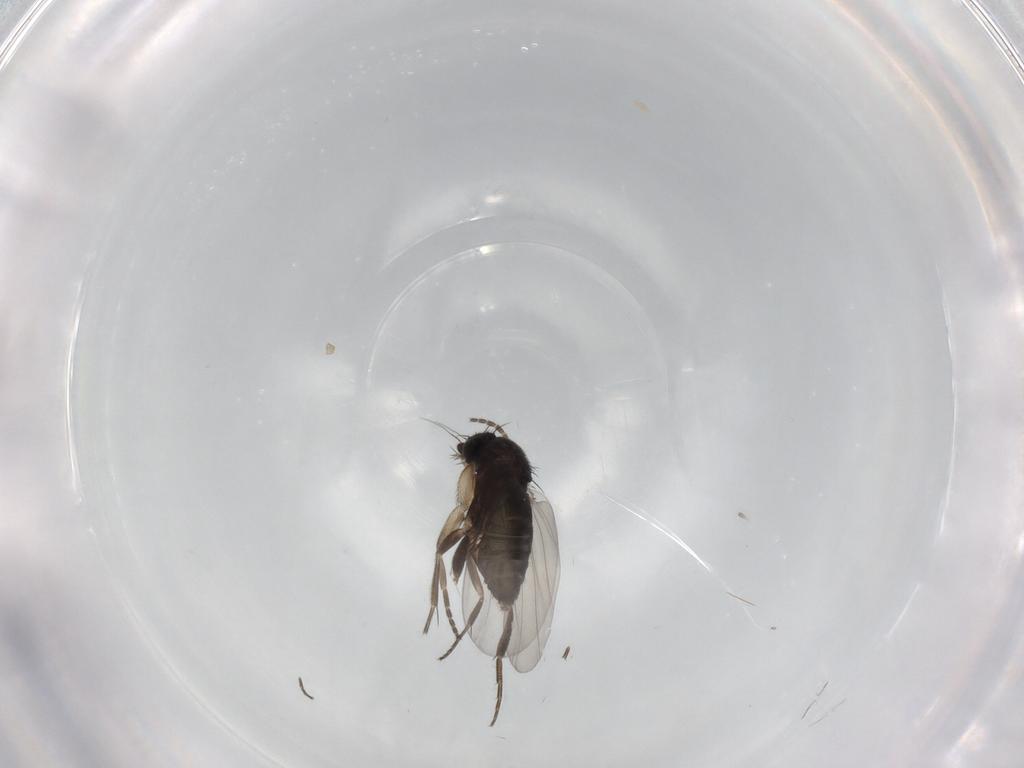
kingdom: Animalia
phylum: Arthropoda
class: Insecta
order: Diptera
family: Phoridae
